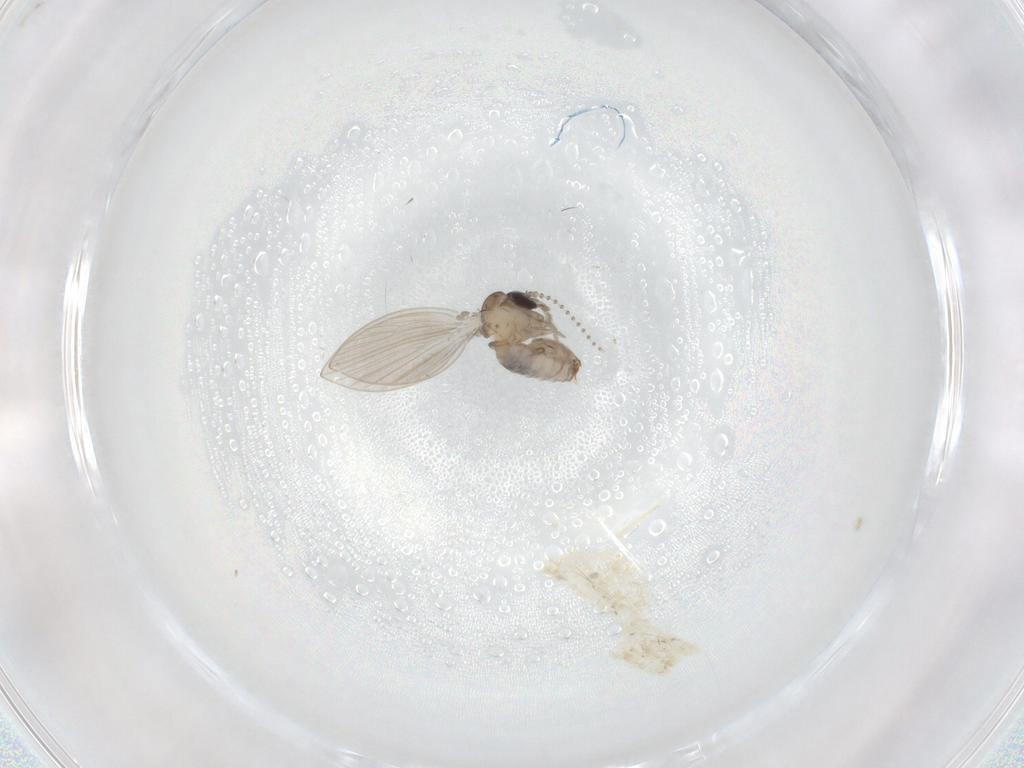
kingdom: Animalia
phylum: Arthropoda
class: Insecta
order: Diptera
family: Psychodidae
